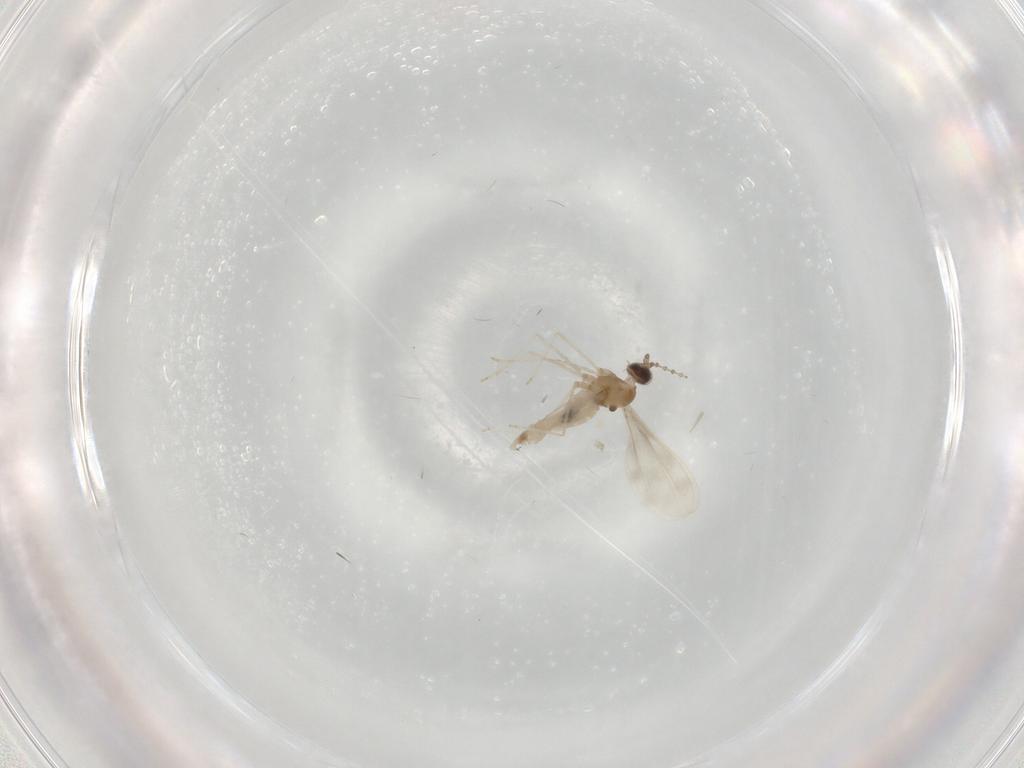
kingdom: Animalia
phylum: Arthropoda
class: Insecta
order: Diptera
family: Cecidomyiidae
